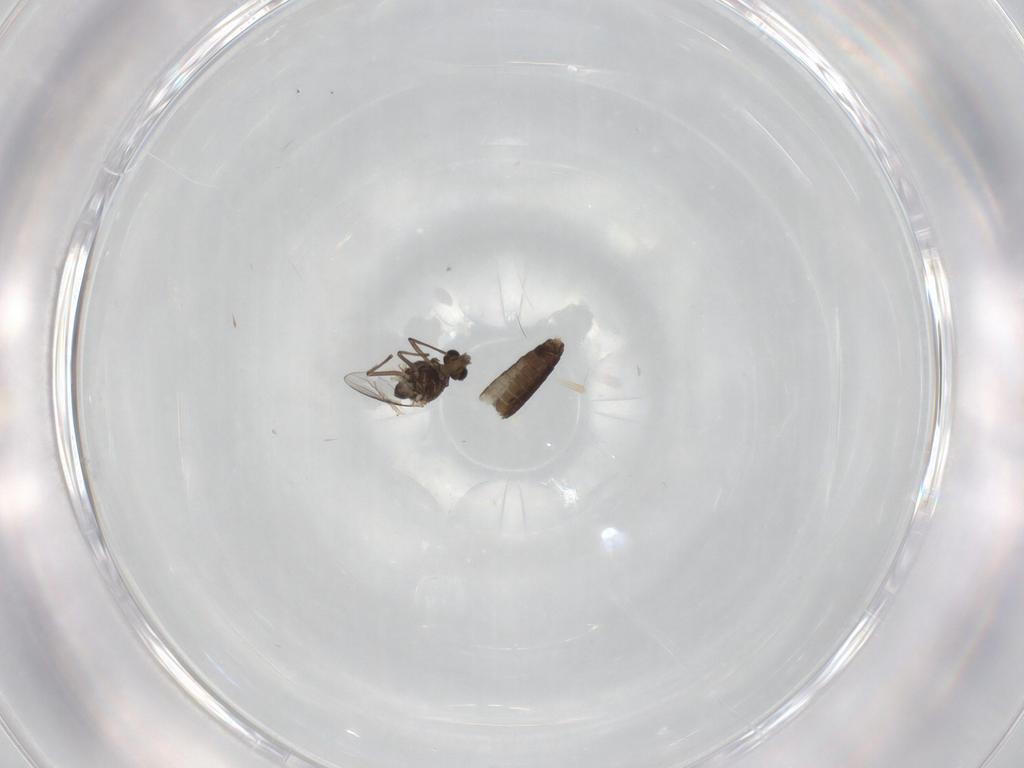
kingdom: Animalia
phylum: Arthropoda
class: Insecta
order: Diptera
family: Chironomidae
